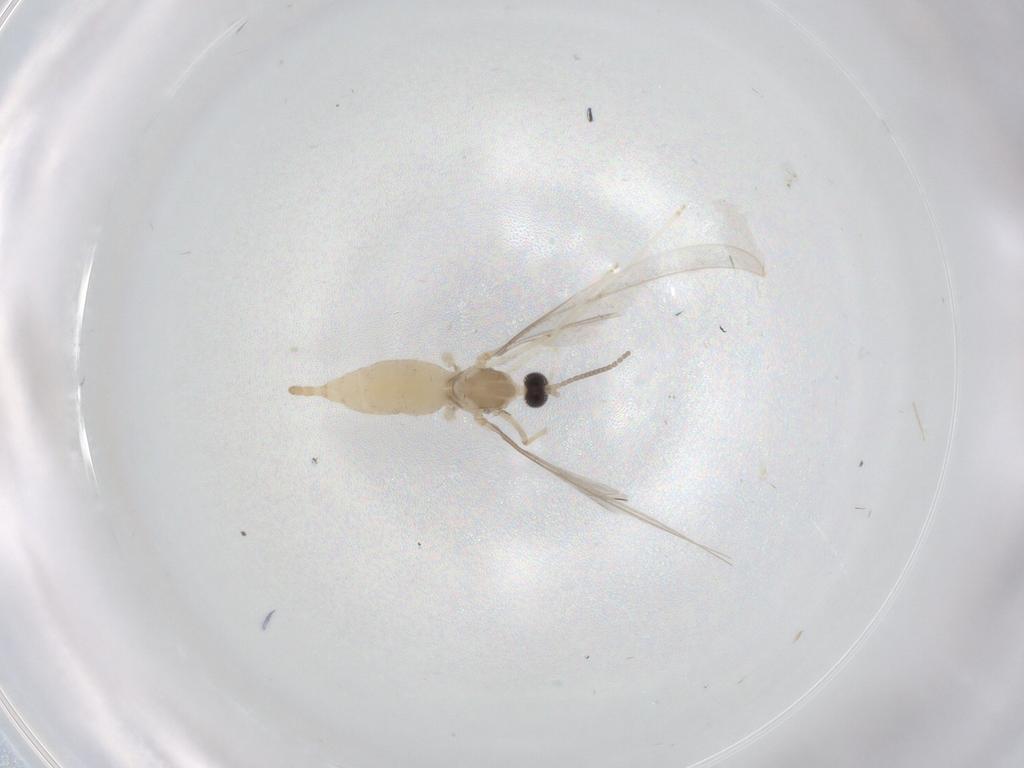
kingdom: Animalia
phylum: Arthropoda
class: Insecta
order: Diptera
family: Cecidomyiidae
